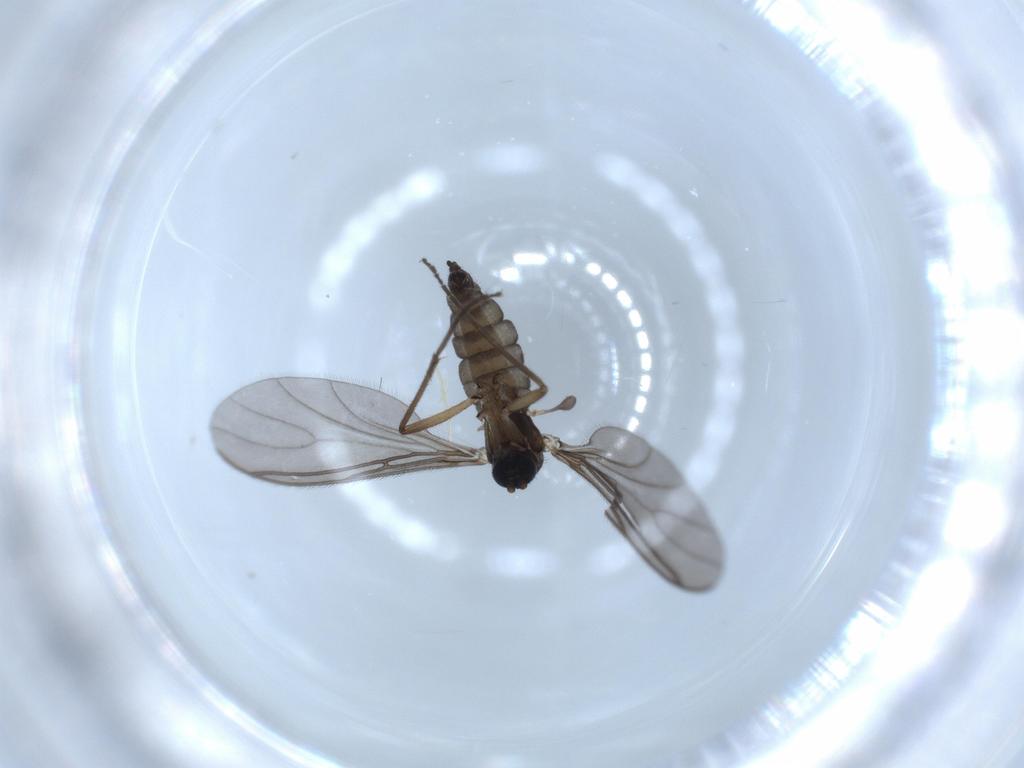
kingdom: Animalia
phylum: Arthropoda
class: Insecta
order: Diptera
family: Sciaridae
